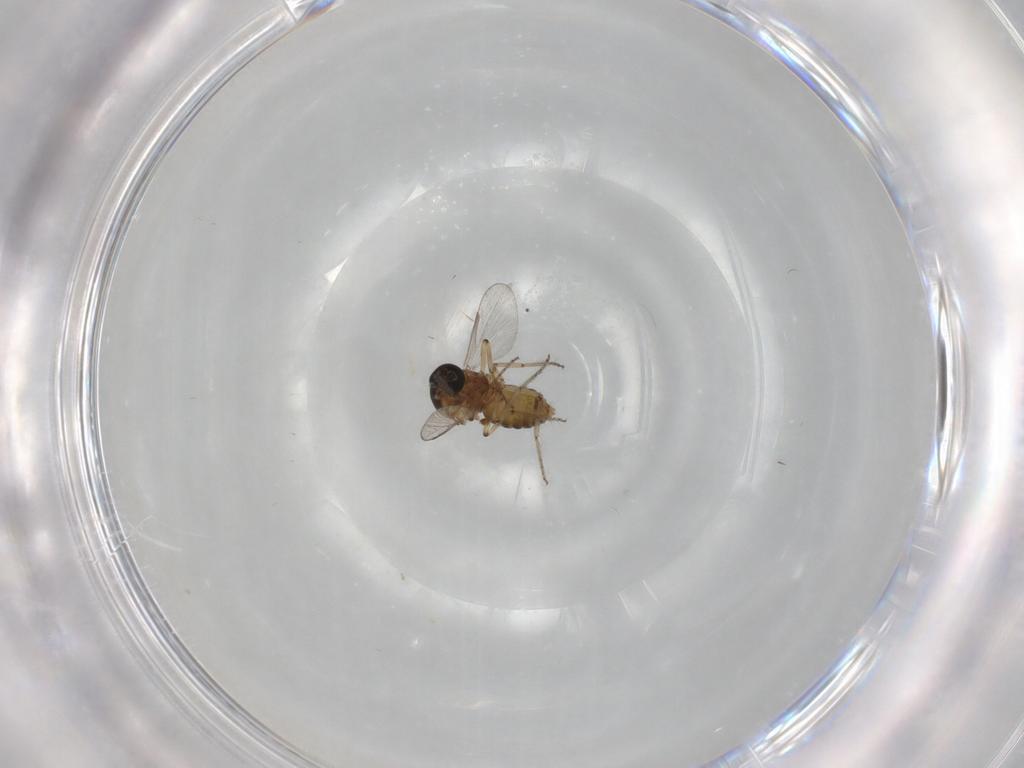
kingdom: Animalia
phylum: Arthropoda
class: Insecta
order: Diptera
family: Ceratopogonidae
